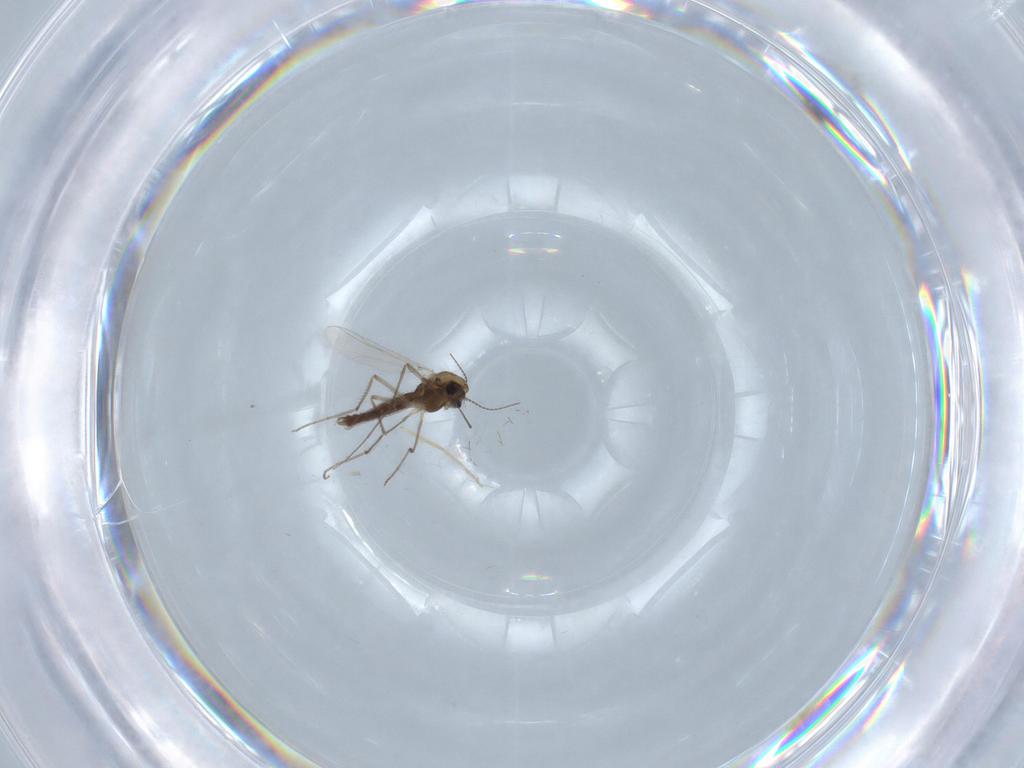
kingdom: Animalia
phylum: Arthropoda
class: Insecta
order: Diptera
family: Chironomidae
